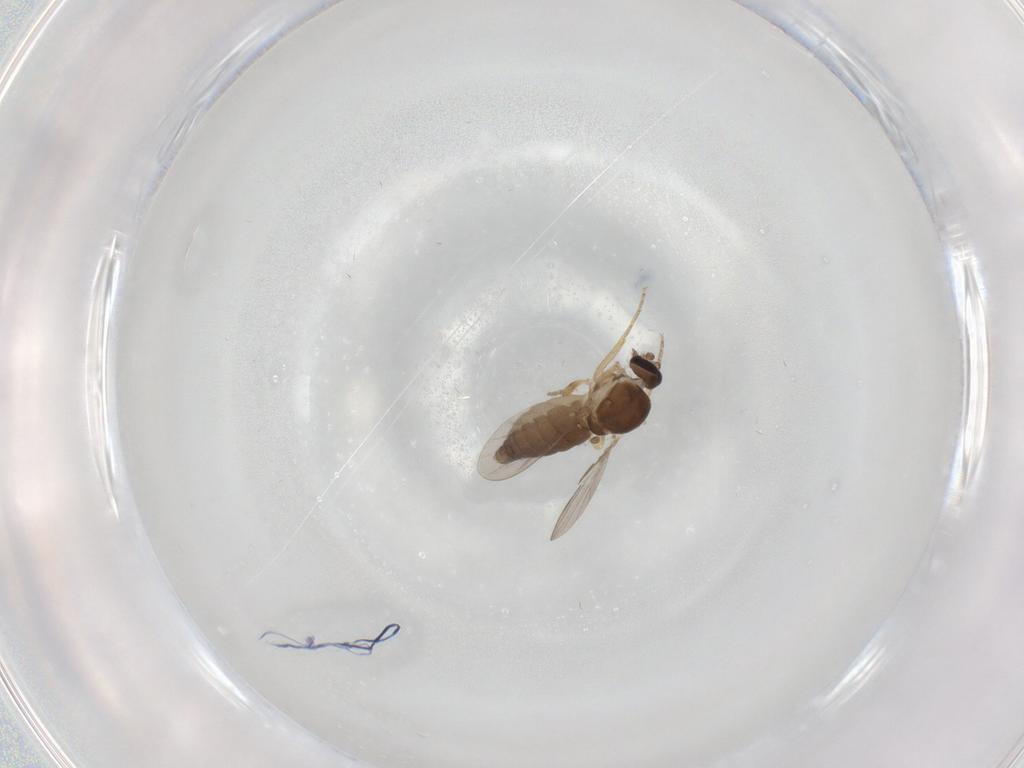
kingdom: Animalia
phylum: Arthropoda
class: Insecta
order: Diptera
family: Ceratopogonidae
